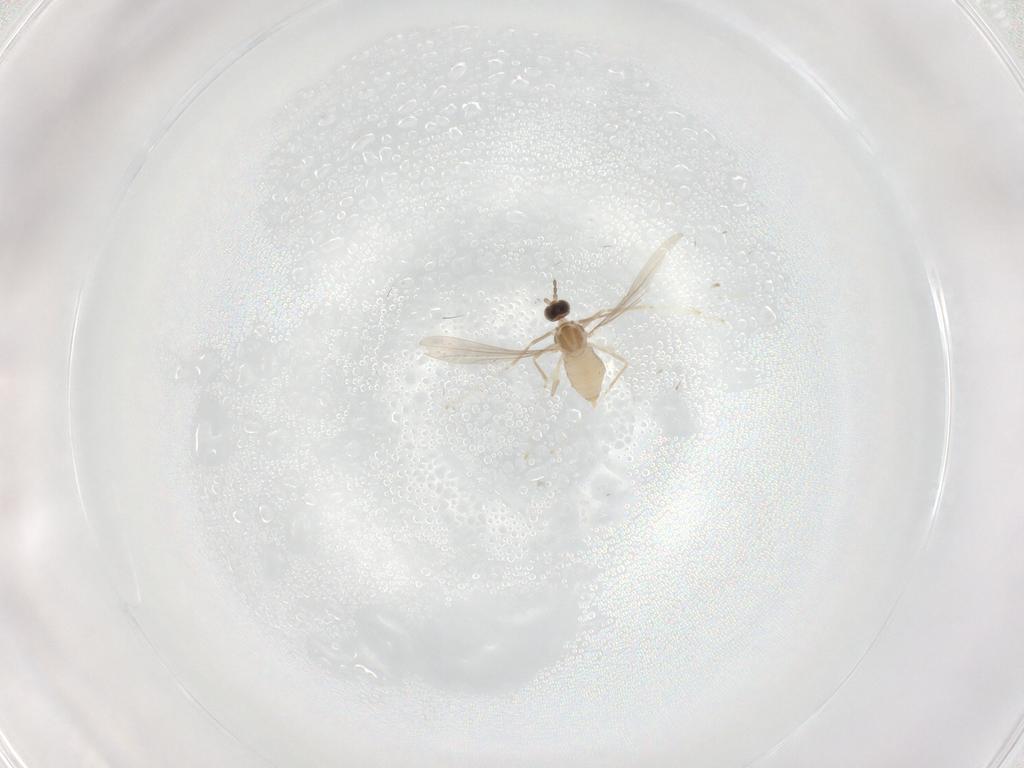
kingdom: Animalia
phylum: Arthropoda
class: Insecta
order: Diptera
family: Cecidomyiidae
